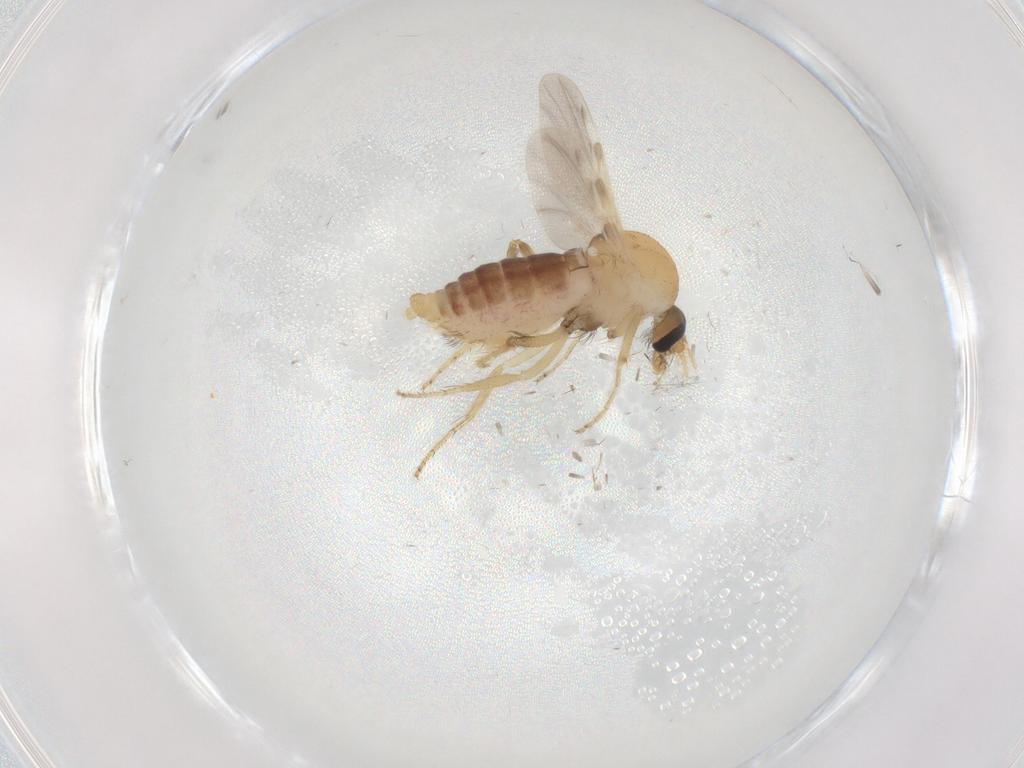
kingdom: Animalia
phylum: Arthropoda
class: Insecta
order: Diptera
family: Ceratopogonidae
